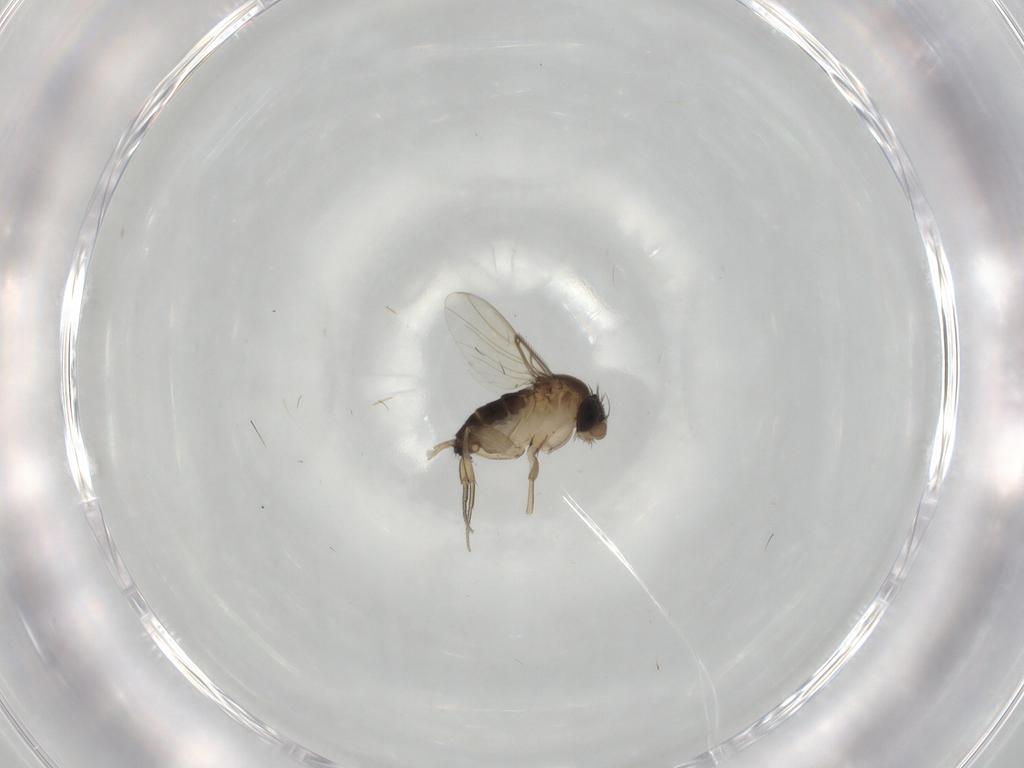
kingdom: Animalia
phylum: Arthropoda
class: Insecta
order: Diptera
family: Phoridae
